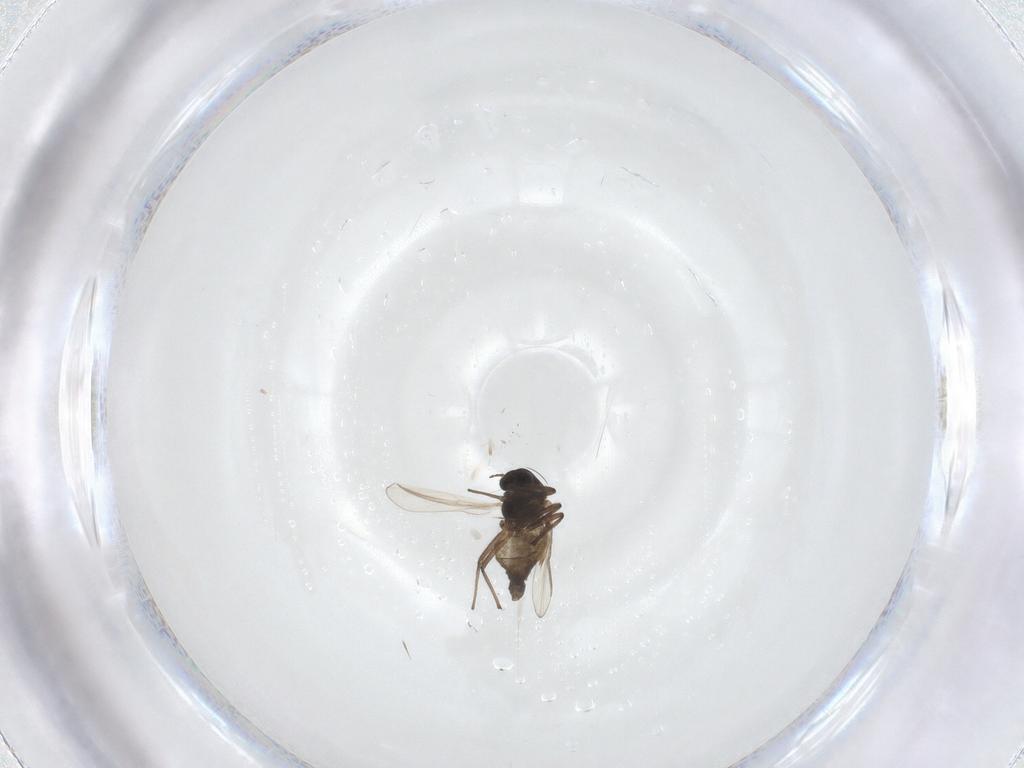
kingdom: Animalia
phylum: Arthropoda
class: Insecta
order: Diptera
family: Chironomidae
